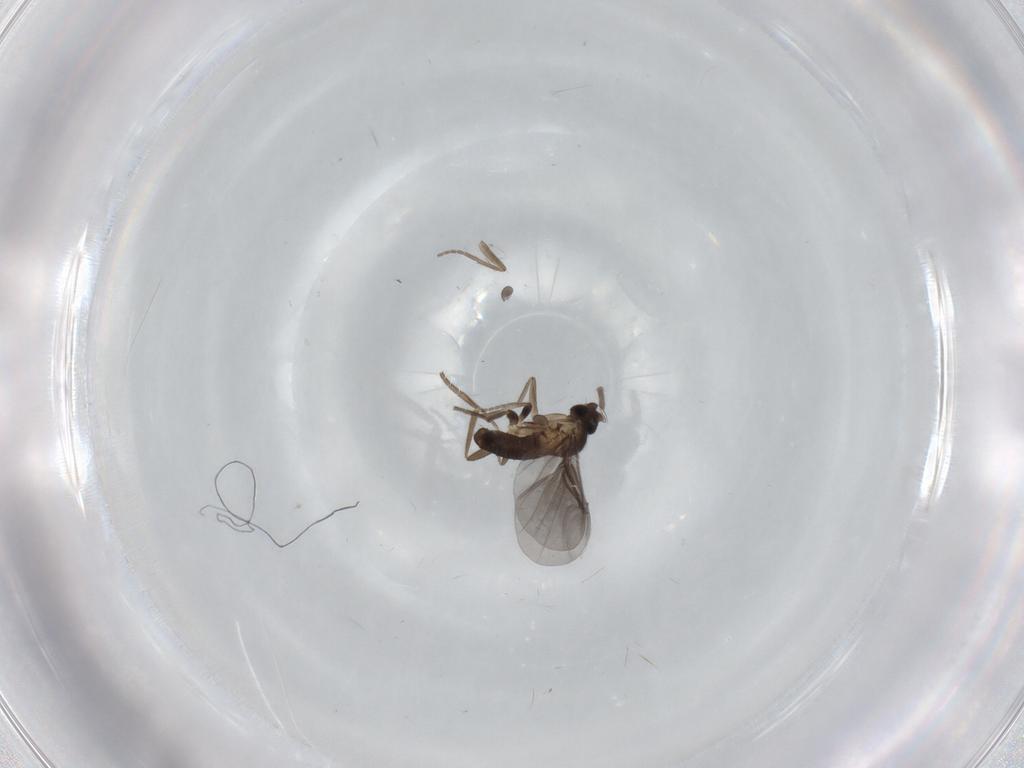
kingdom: Animalia
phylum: Arthropoda
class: Insecta
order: Diptera
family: Phoridae
